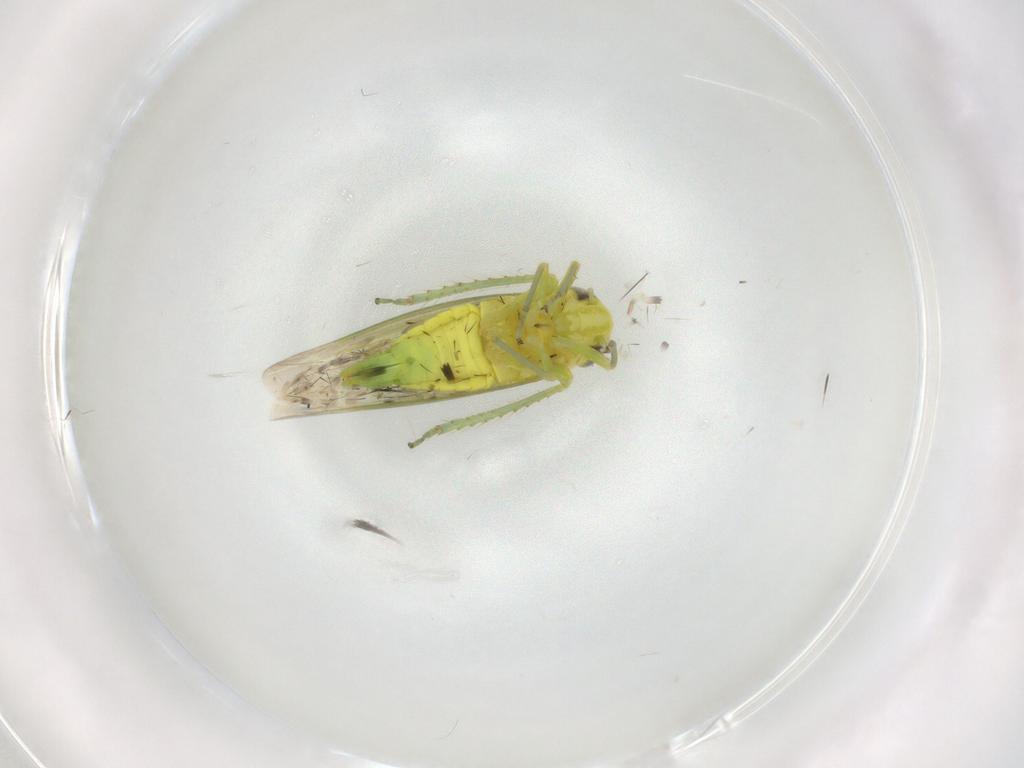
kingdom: Animalia
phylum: Arthropoda
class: Insecta
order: Hemiptera
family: Cicadellidae
